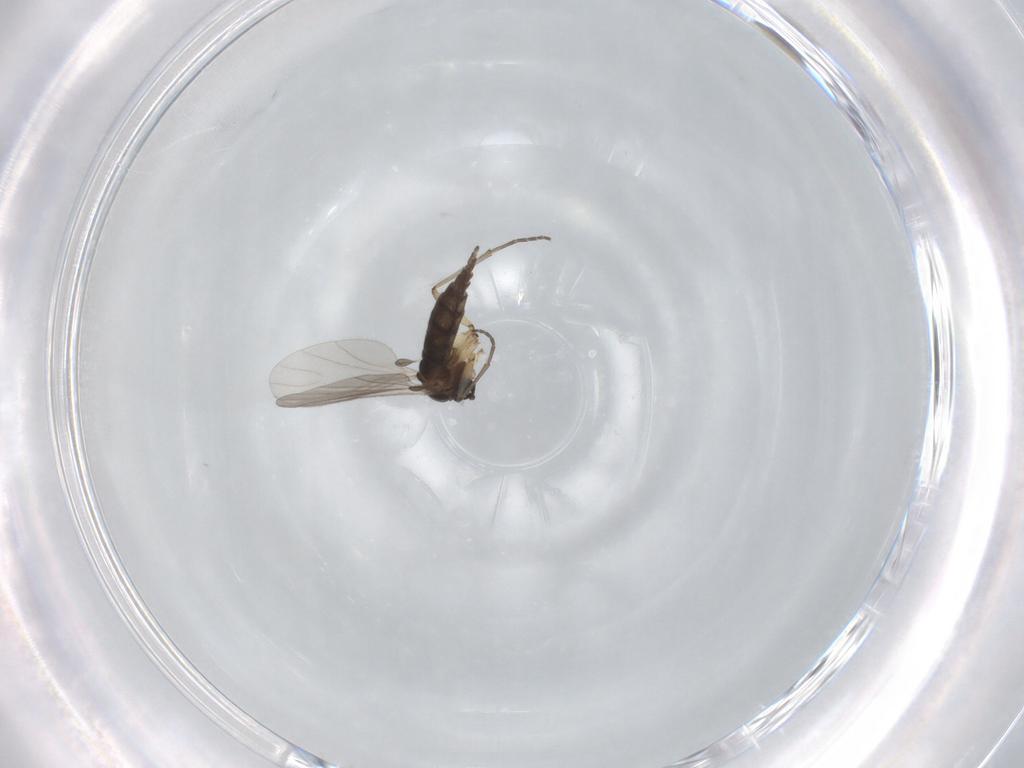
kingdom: Animalia
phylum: Arthropoda
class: Insecta
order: Diptera
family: Sciaridae
